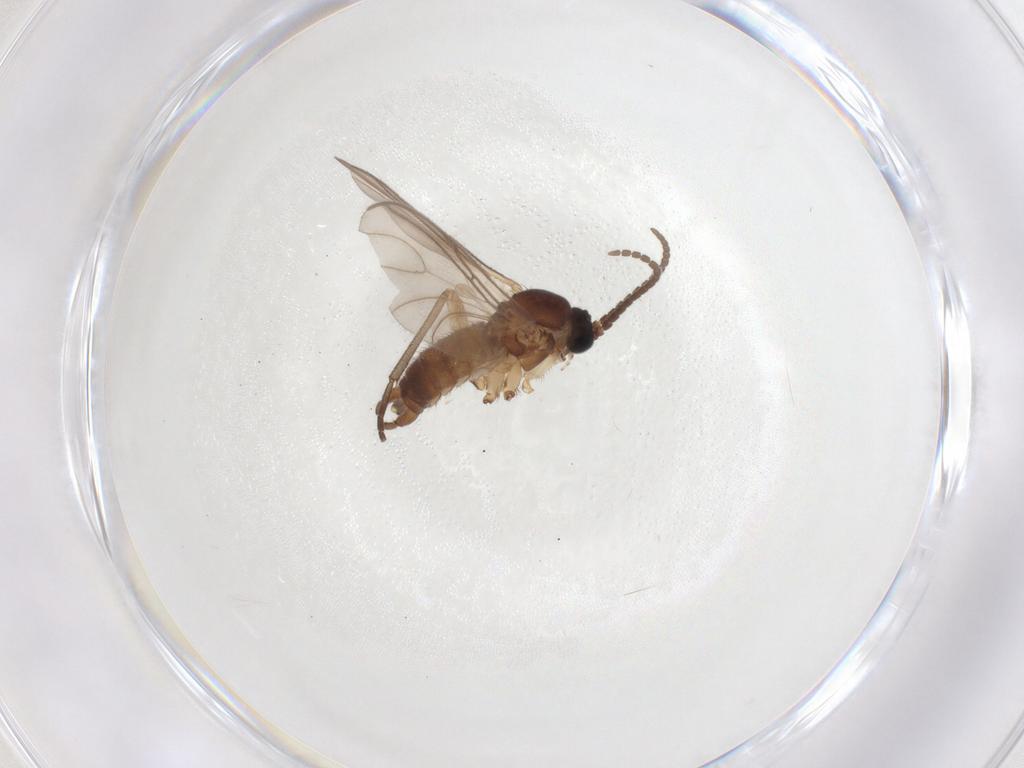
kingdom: Animalia
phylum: Arthropoda
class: Insecta
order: Diptera
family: Sciaridae
